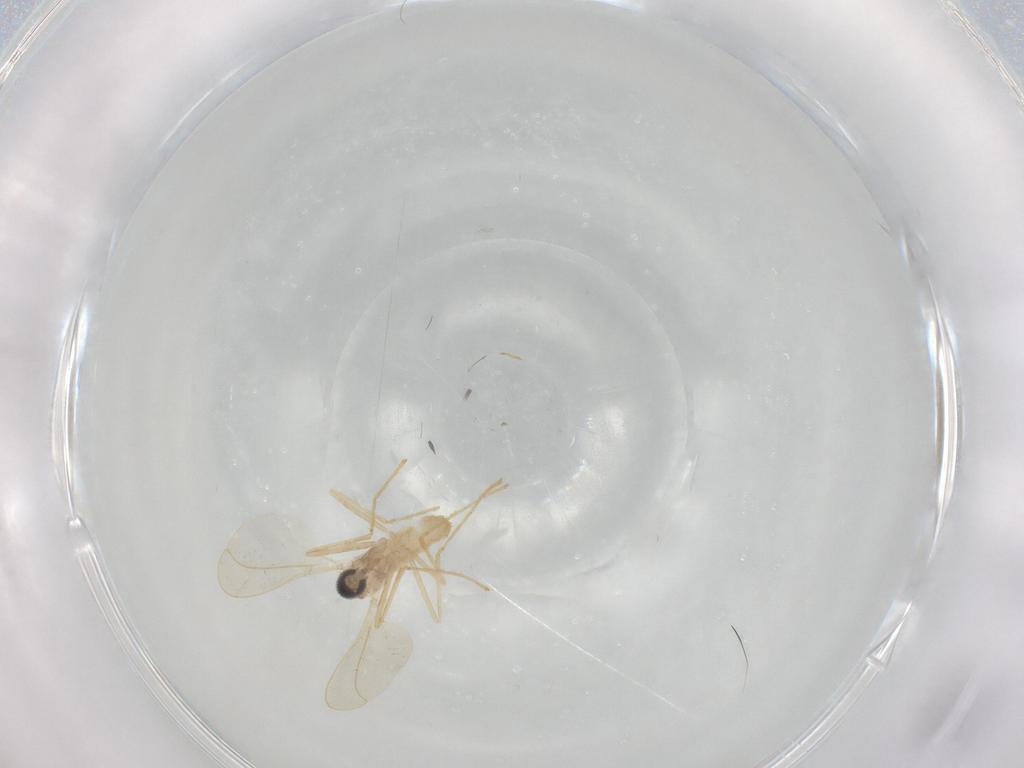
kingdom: Animalia
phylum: Arthropoda
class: Insecta
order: Diptera
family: Cecidomyiidae
